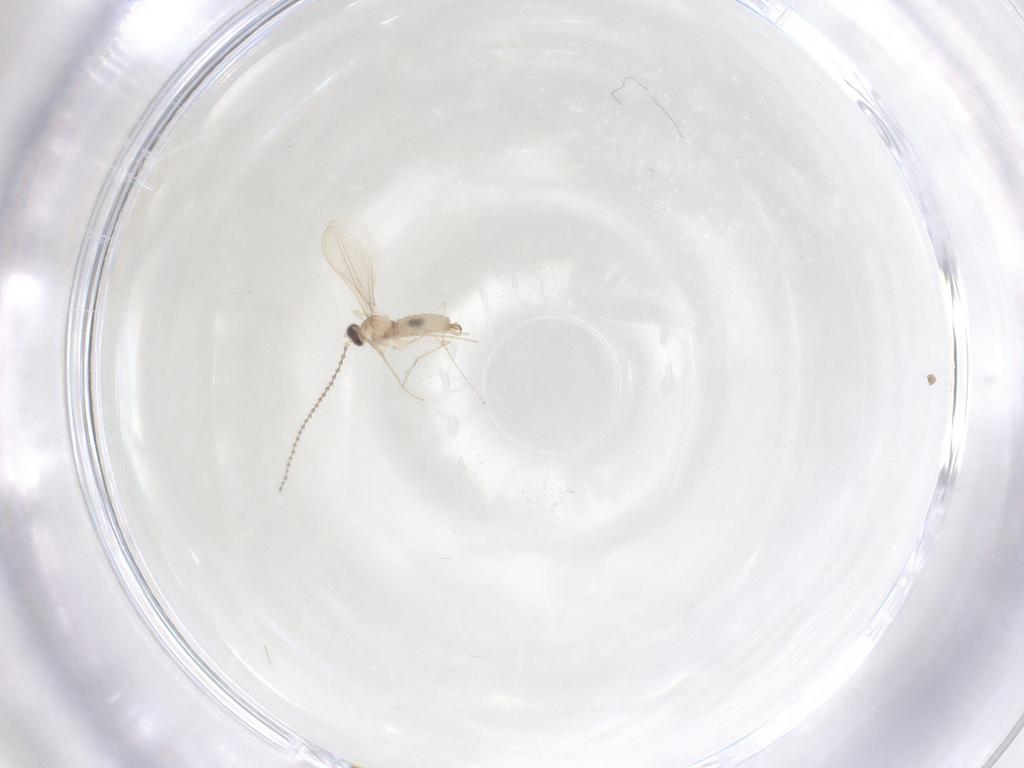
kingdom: Animalia
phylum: Arthropoda
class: Insecta
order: Diptera
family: Cecidomyiidae
